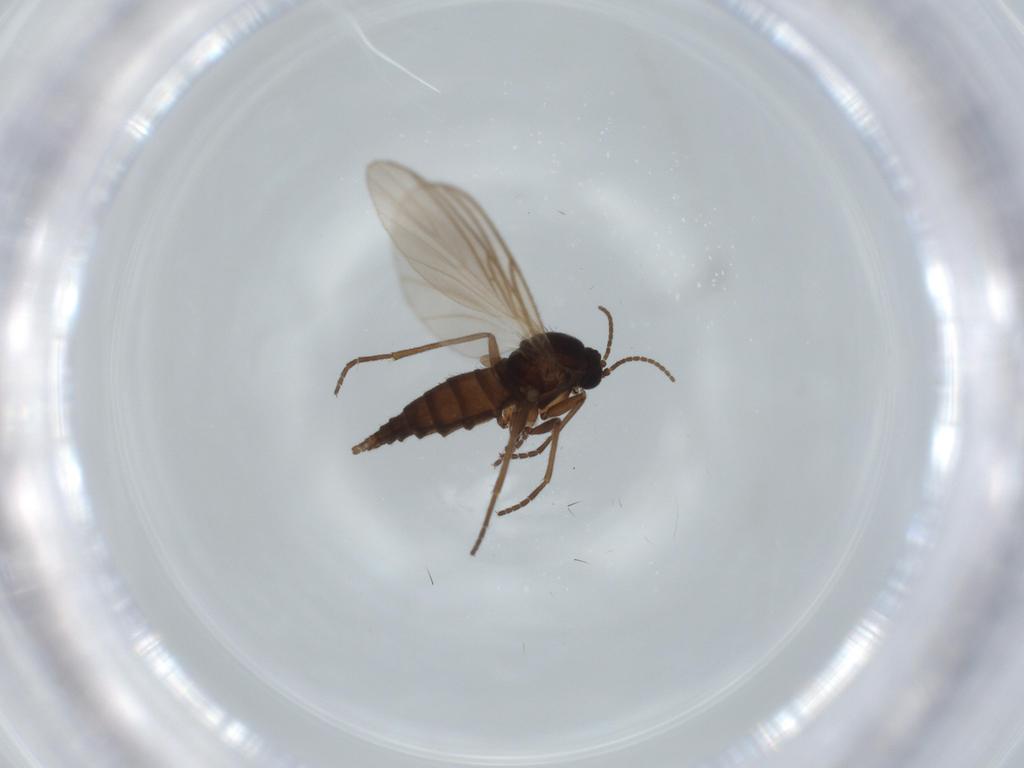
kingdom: Animalia
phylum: Arthropoda
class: Insecta
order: Diptera
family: Sciaridae
